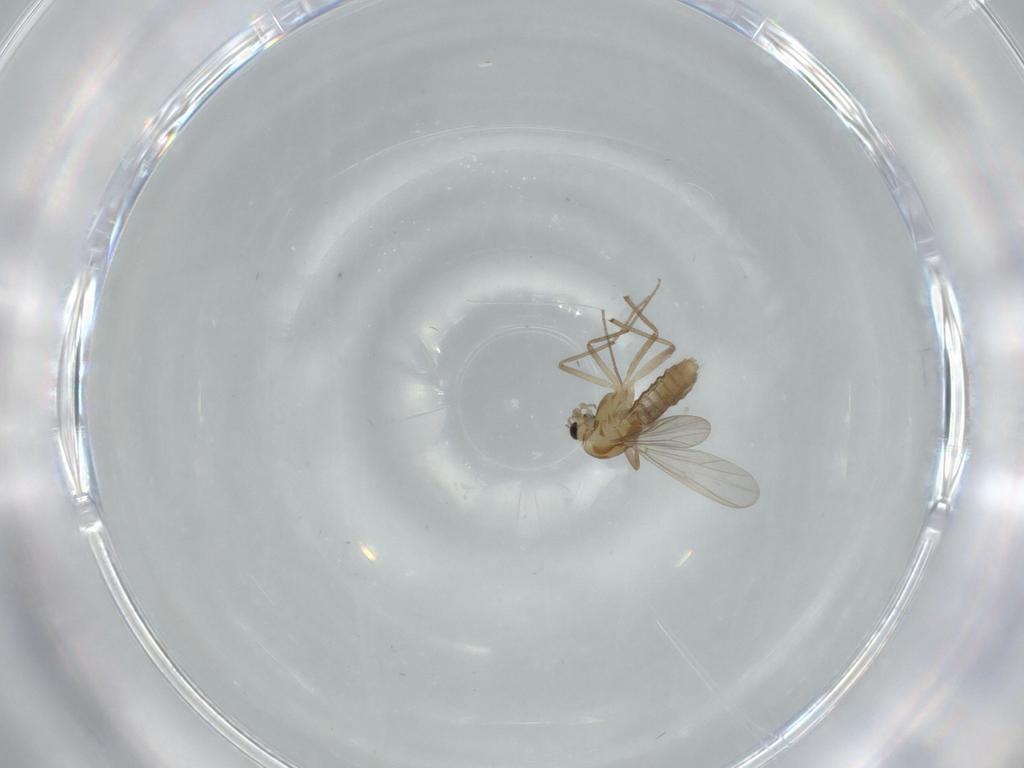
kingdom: Animalia
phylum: Arthropoda
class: Insecta
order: Diptera
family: Chironomidae
